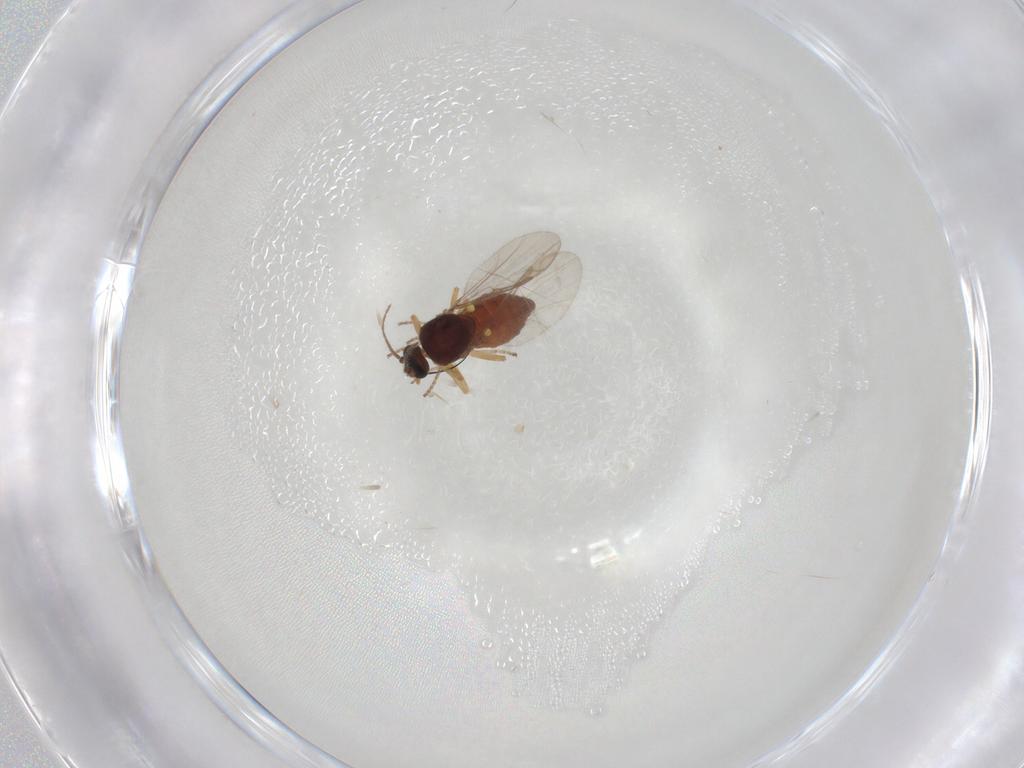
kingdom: Animalia
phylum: Arthropoda
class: Insecta
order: Diptera
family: Ceratopogonidae
